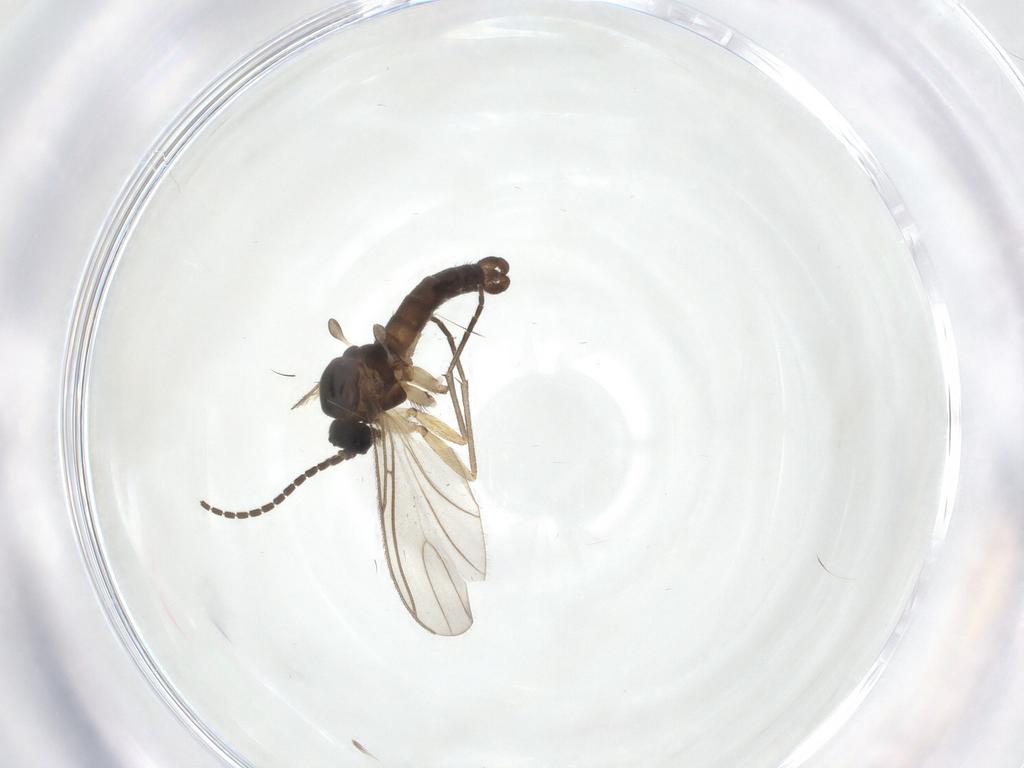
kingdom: Animalia
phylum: Arthropoda
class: Insecta
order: Diptera
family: Sciaridae
